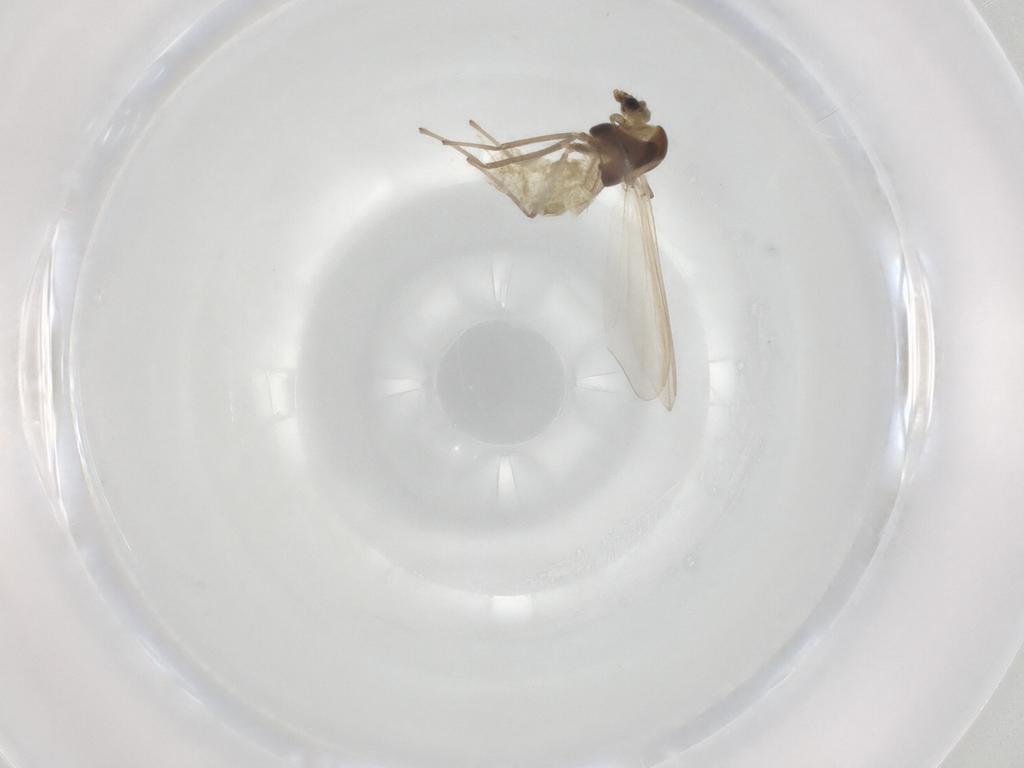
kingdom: Animalia
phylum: Arthropoda
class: Insecta
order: Diptera
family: Chironomidae
